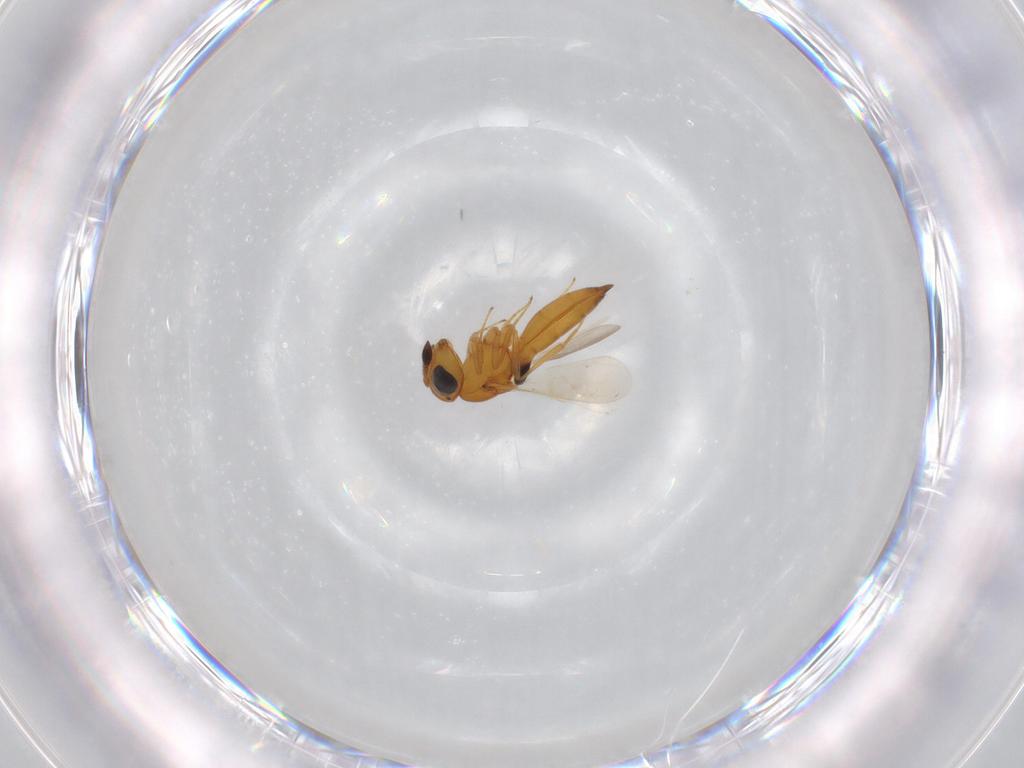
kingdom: Animalia
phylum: Arthropoda
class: Insecta
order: Hymenoptera
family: Scelionidae
